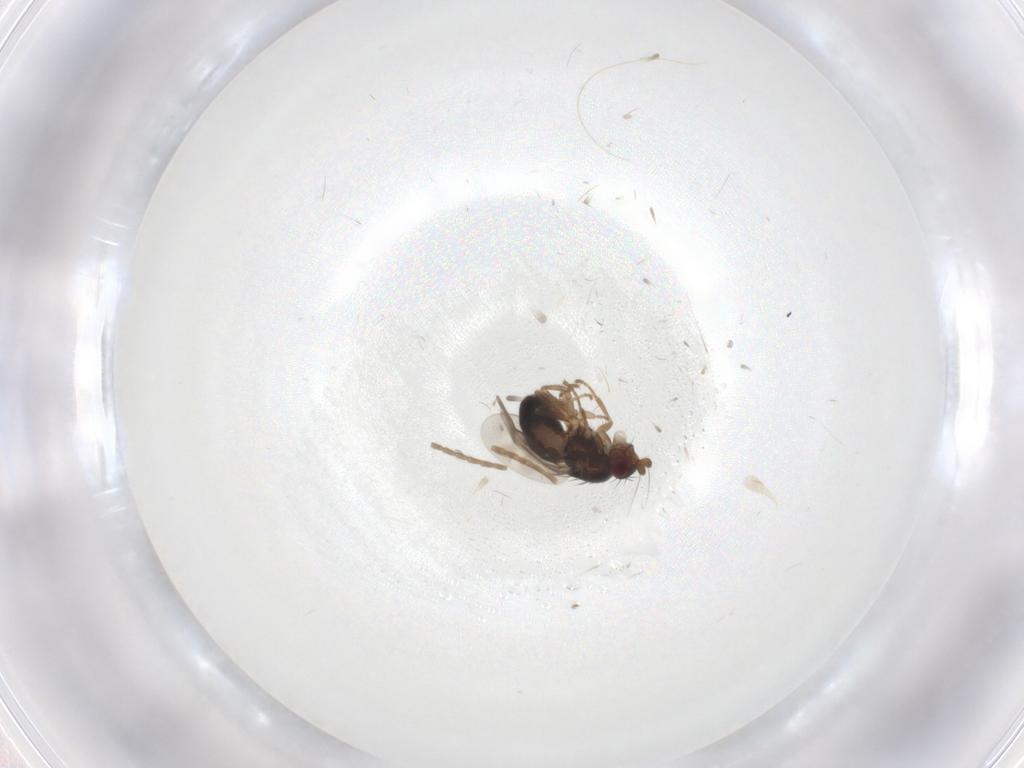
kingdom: Animalia
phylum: Arthropoda
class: Insecta
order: Diptera
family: Sphaeroceridae
